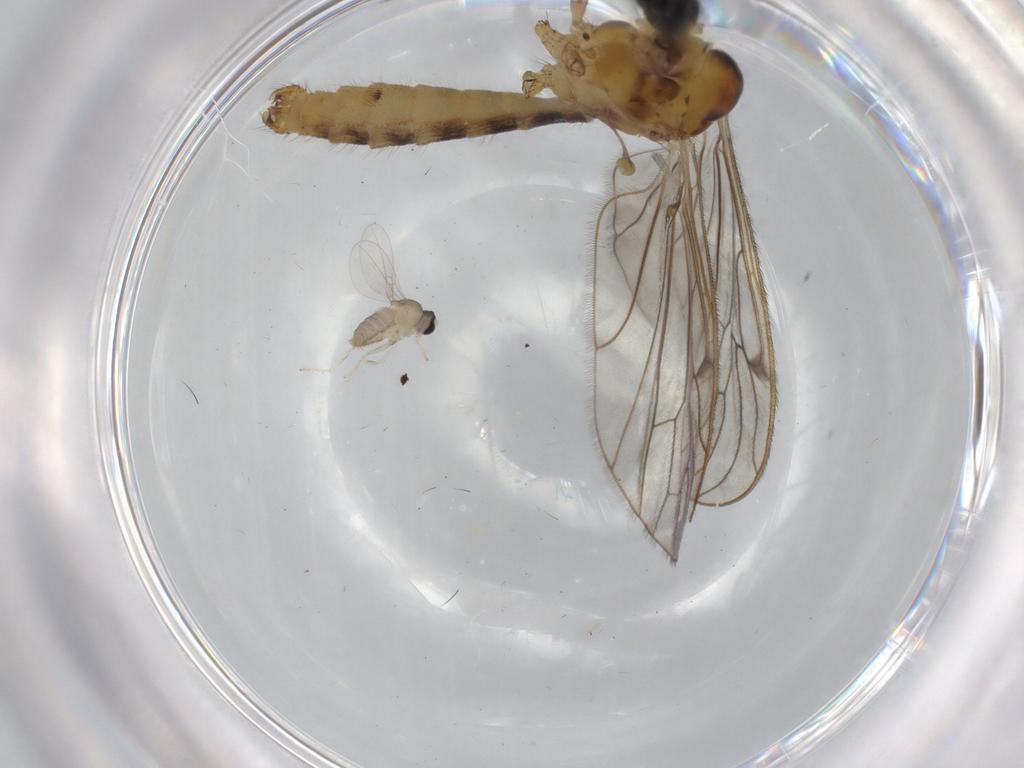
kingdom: Animalia
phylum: Arthropoda
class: Insecta
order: Diptera
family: Limoniidae
